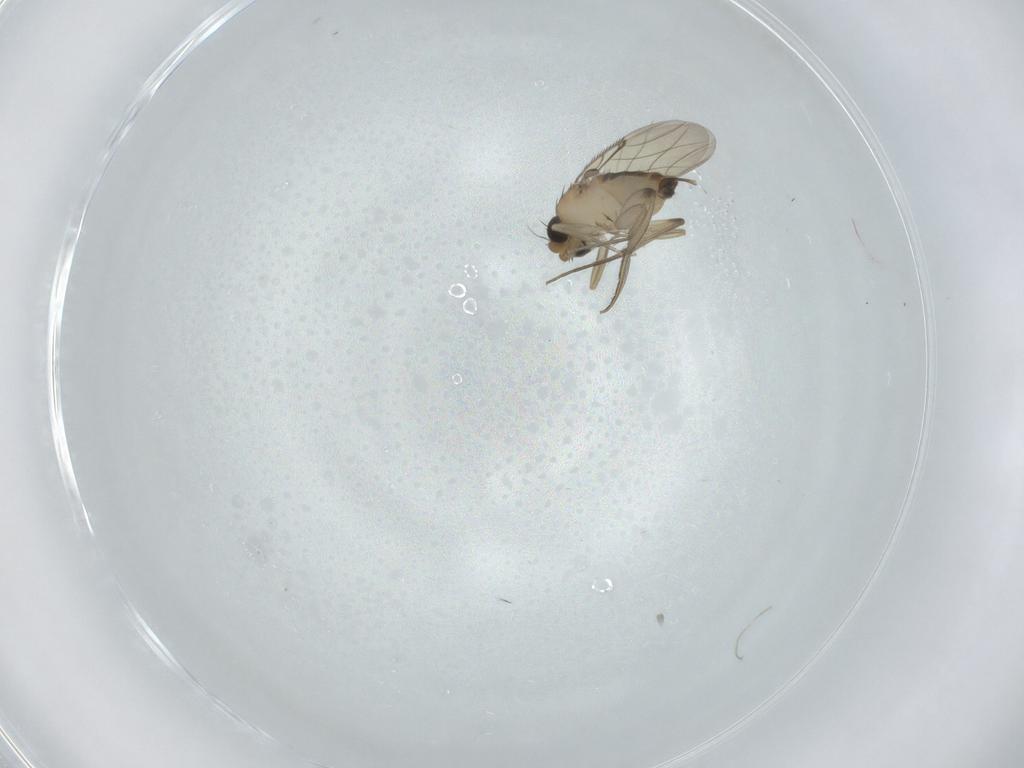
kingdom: Animalia
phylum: Arthropoda
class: Insecta
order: Diptera
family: Phoridae
